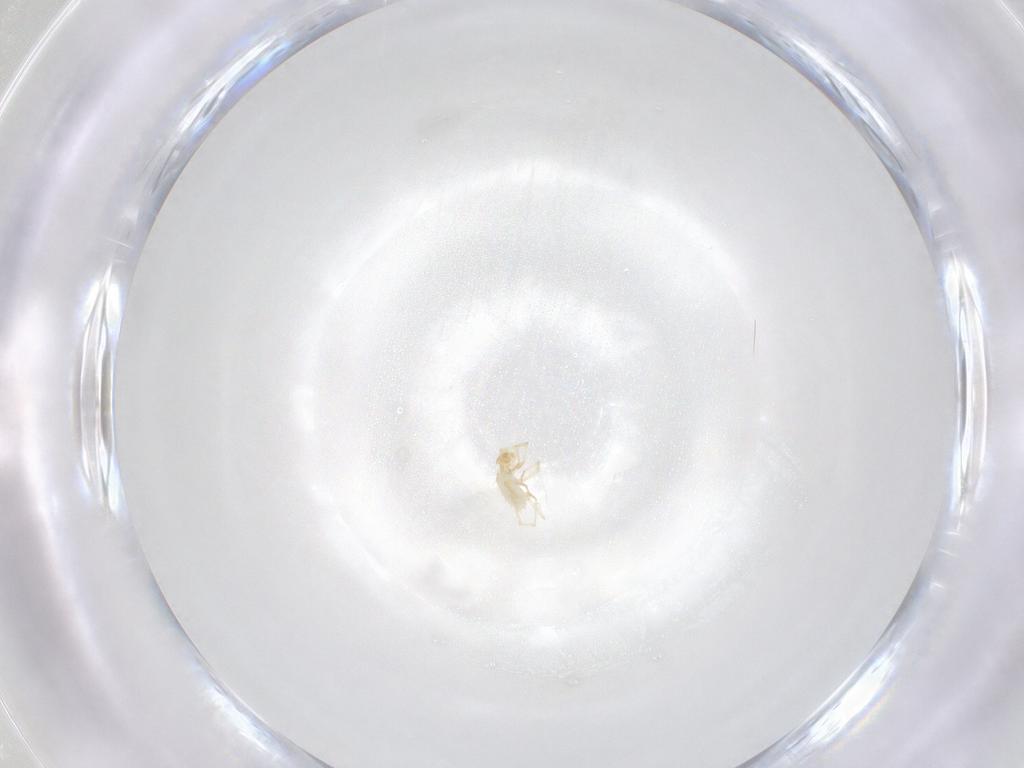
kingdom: Animalia
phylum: Arthropoda
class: Arachnida
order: Trombidiformes
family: Erythraeidae
